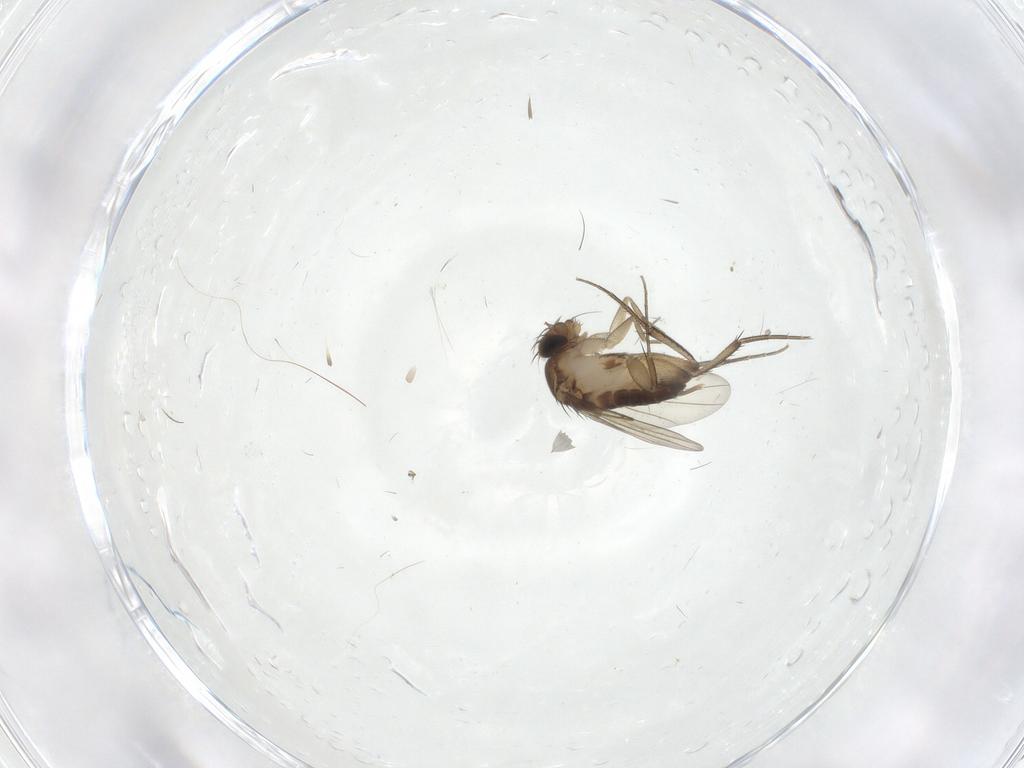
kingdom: Animalia
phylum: Arthropoda
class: Insecta
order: Diptera
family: Phoridae
